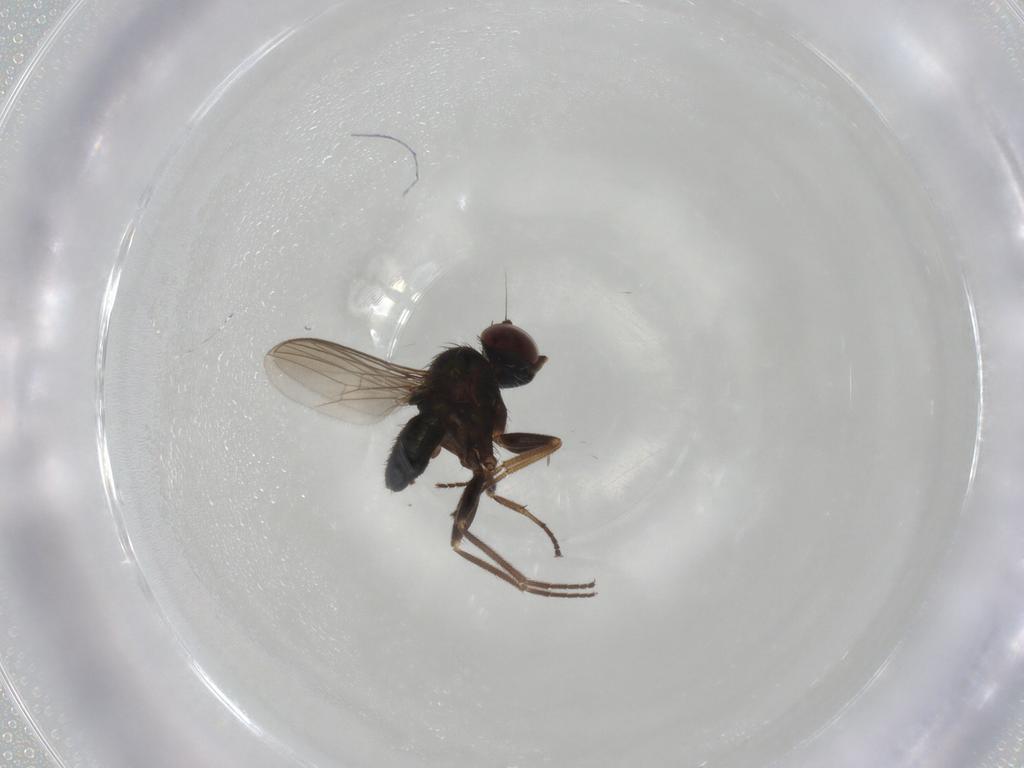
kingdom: Animalia
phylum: Arthropoda
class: Insecta
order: Diptera
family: Dolichopodidae
